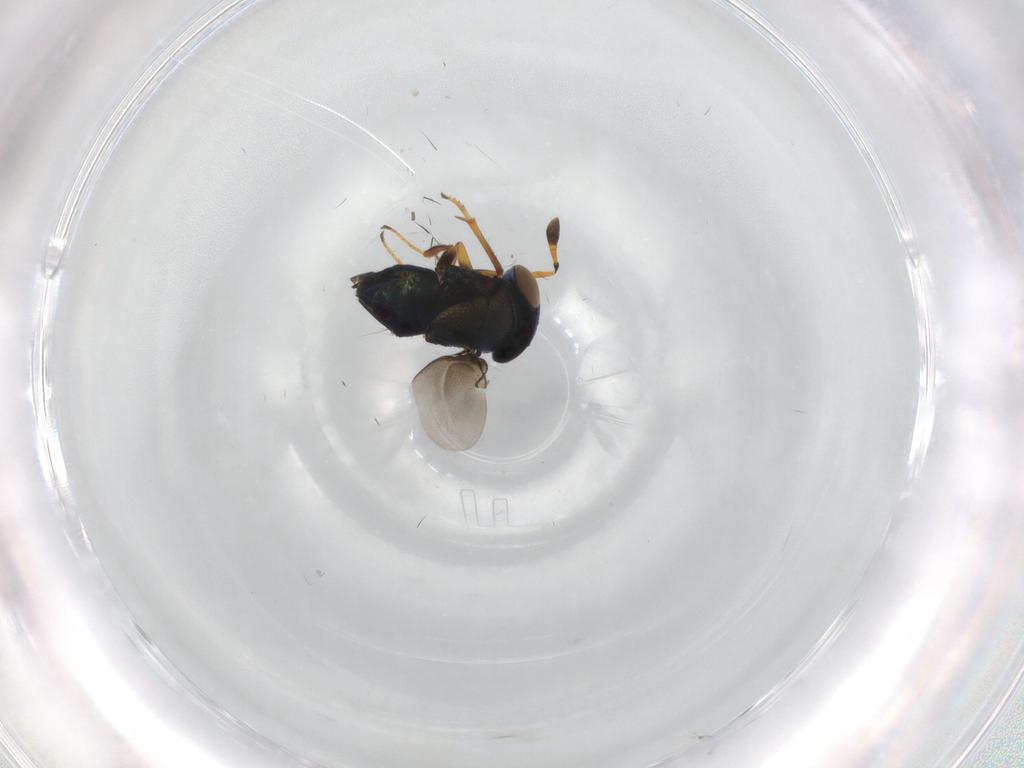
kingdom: Animalia
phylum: Arthropoda
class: Insecta
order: Hymenoptera
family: Encyrtidae
